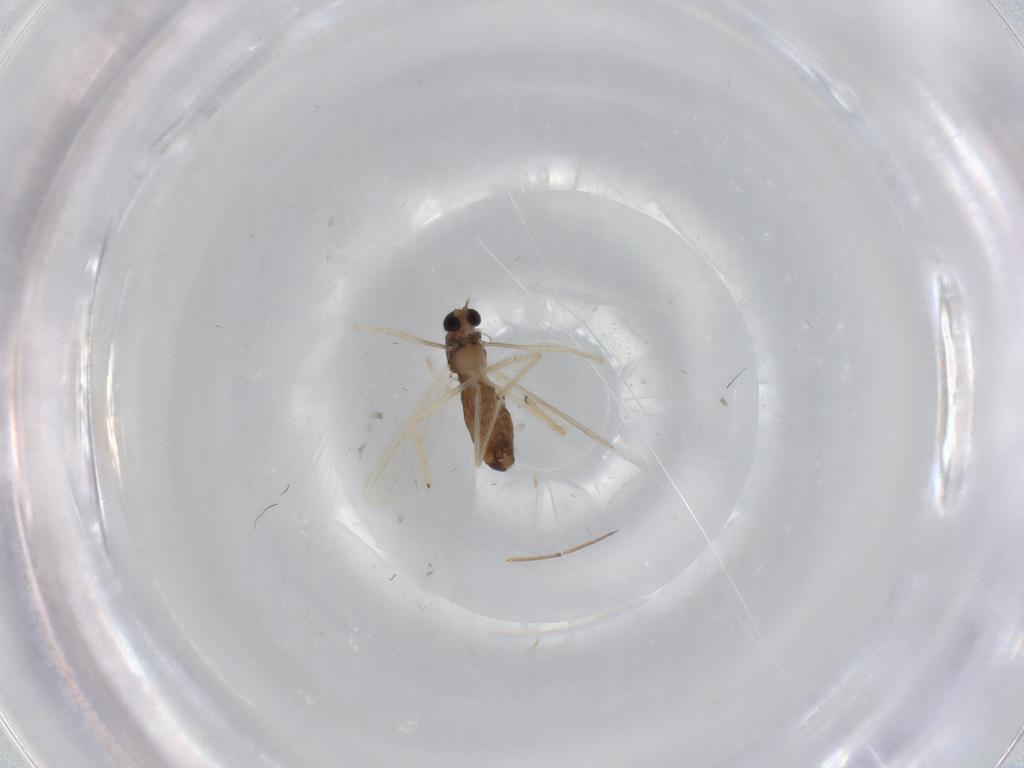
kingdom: Animalia
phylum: Arthropoda
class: Insecta
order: Diptera
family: Chironomidae
